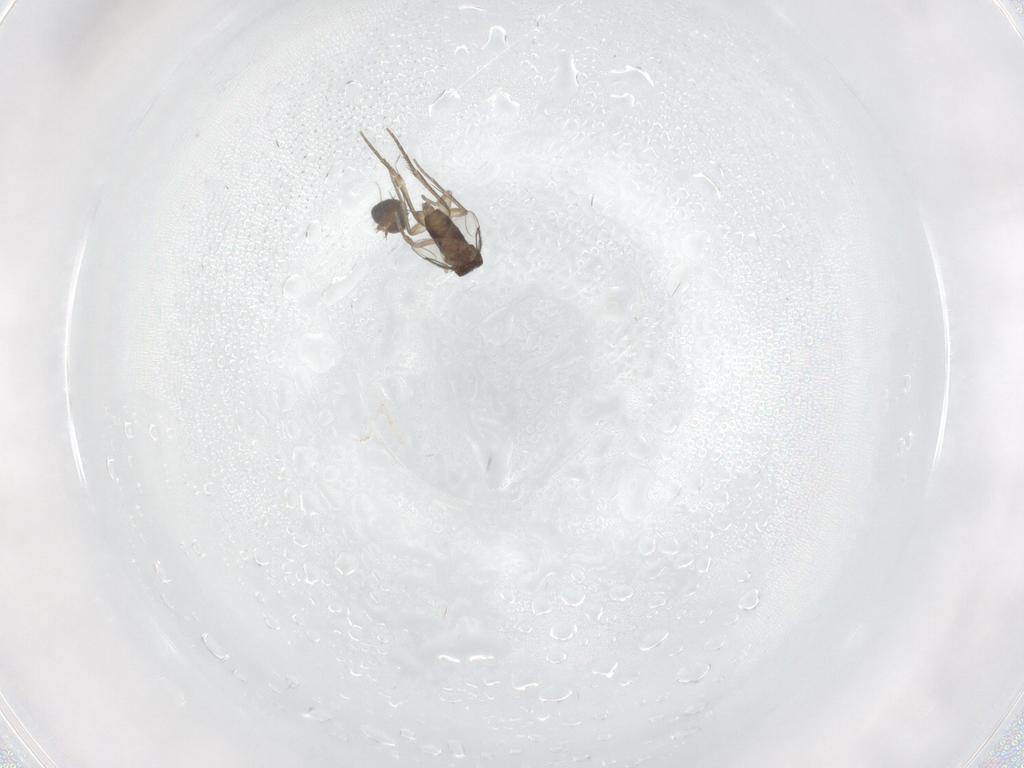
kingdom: Animalia
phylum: Arthropoda
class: Insecta
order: Diptera
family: Phoridae
